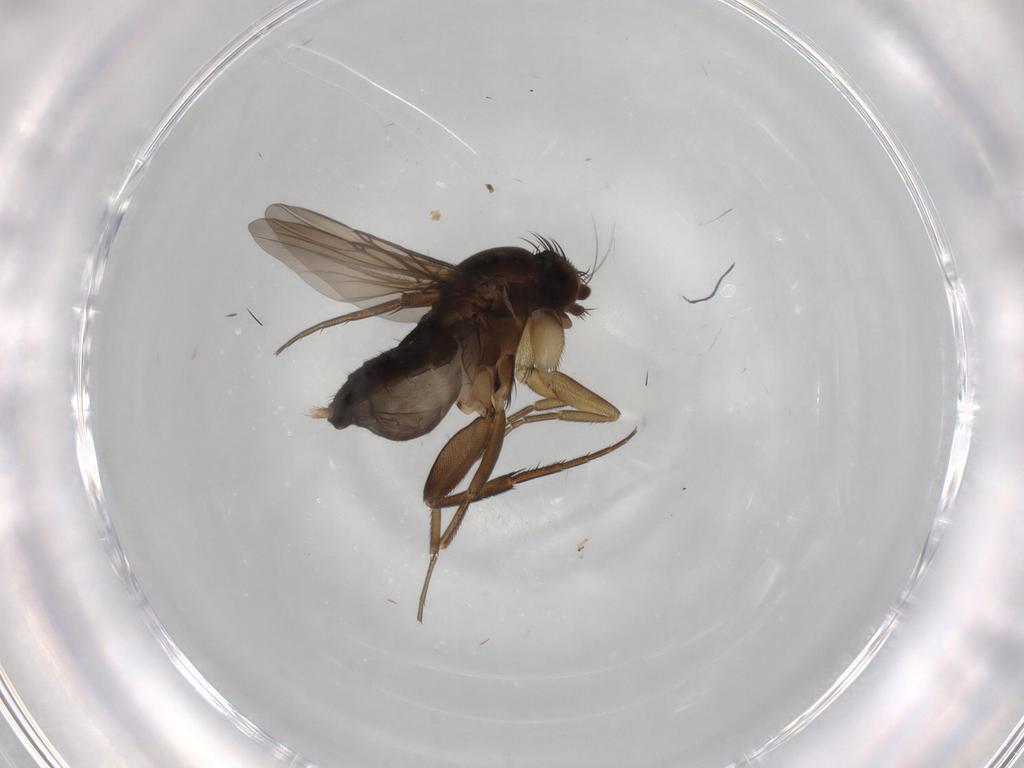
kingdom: Animalia
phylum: Arthropoda
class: Insecta
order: Diptera
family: Phoridae
